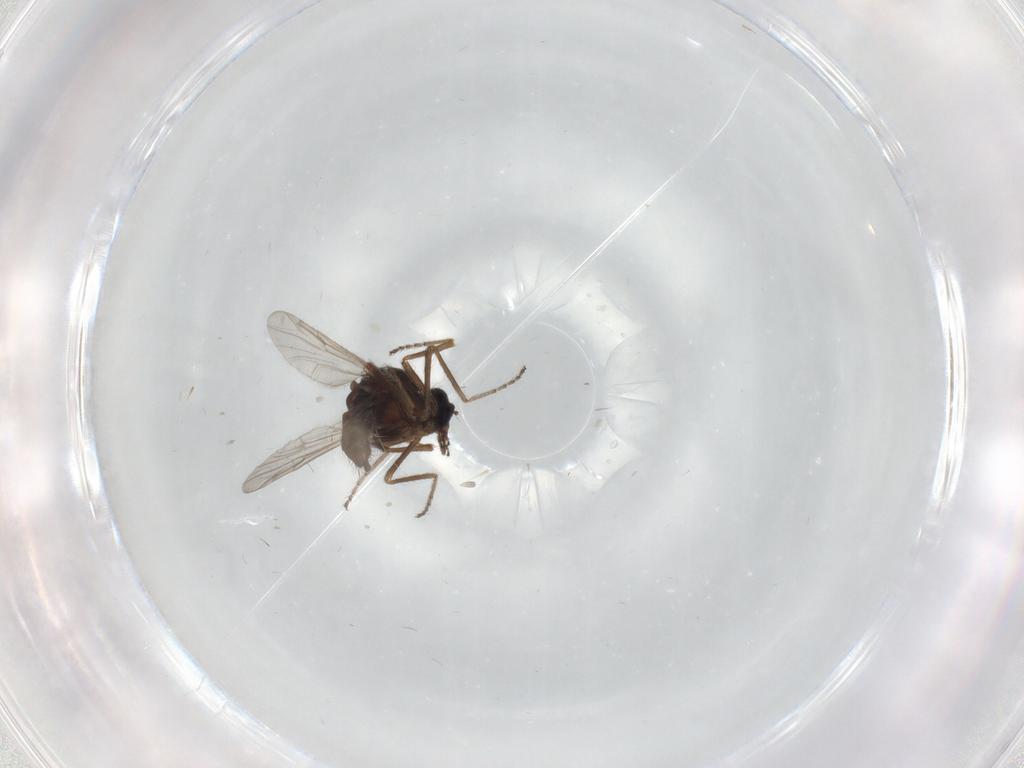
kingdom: Animalia
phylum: Arthropoda
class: Insecta
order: Diptera
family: Ceratopogonidae
